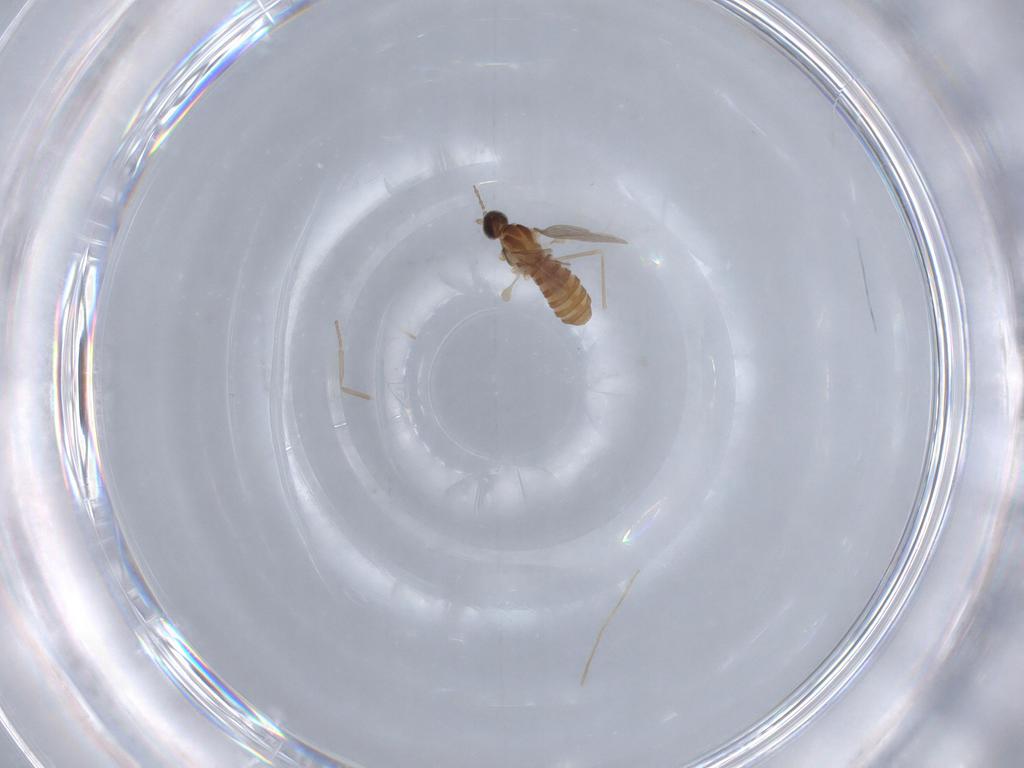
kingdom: Animalia
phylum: Arthropoda
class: Insecta
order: Diptera
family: Cecidomyiidae
